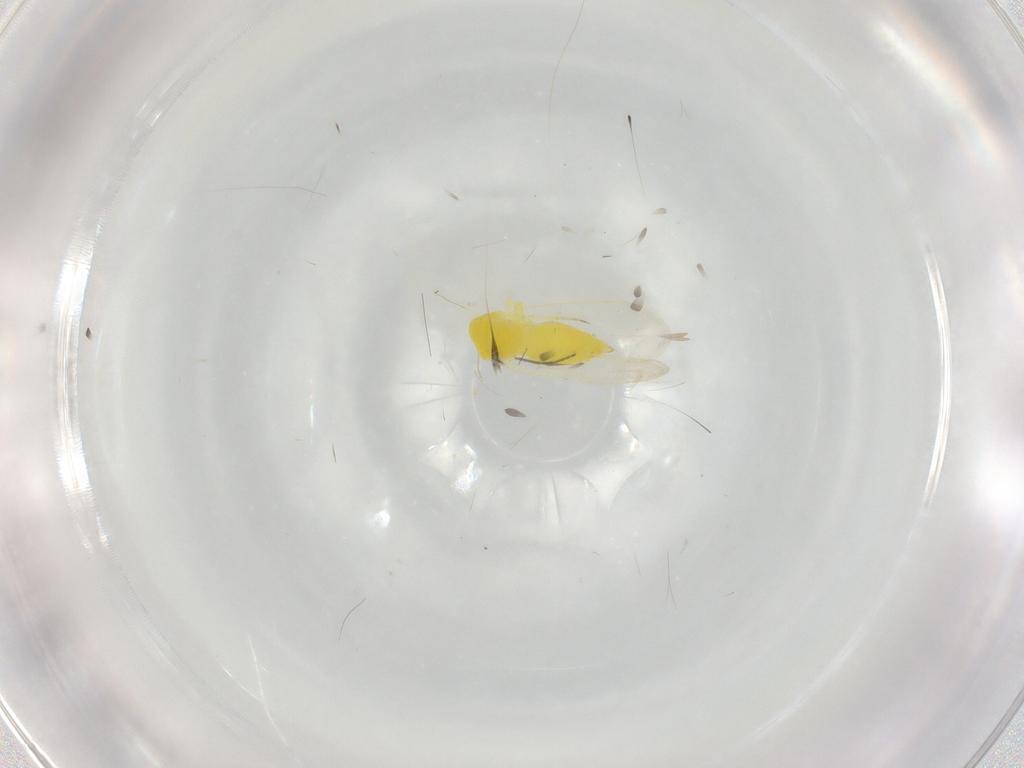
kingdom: Animalia
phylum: Arthropoda
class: Insecta
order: Hemiptera
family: Aleyrodidae
